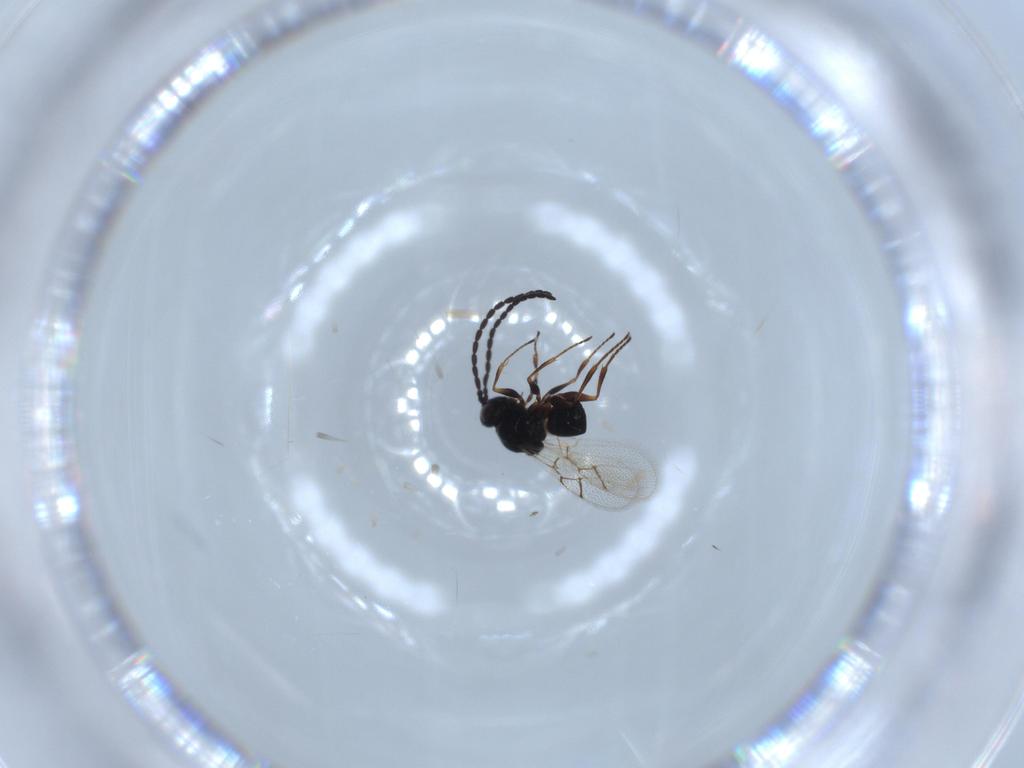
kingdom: Animalia
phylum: Arthropoda
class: Insecta
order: Hymenoptera
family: Figitidae
